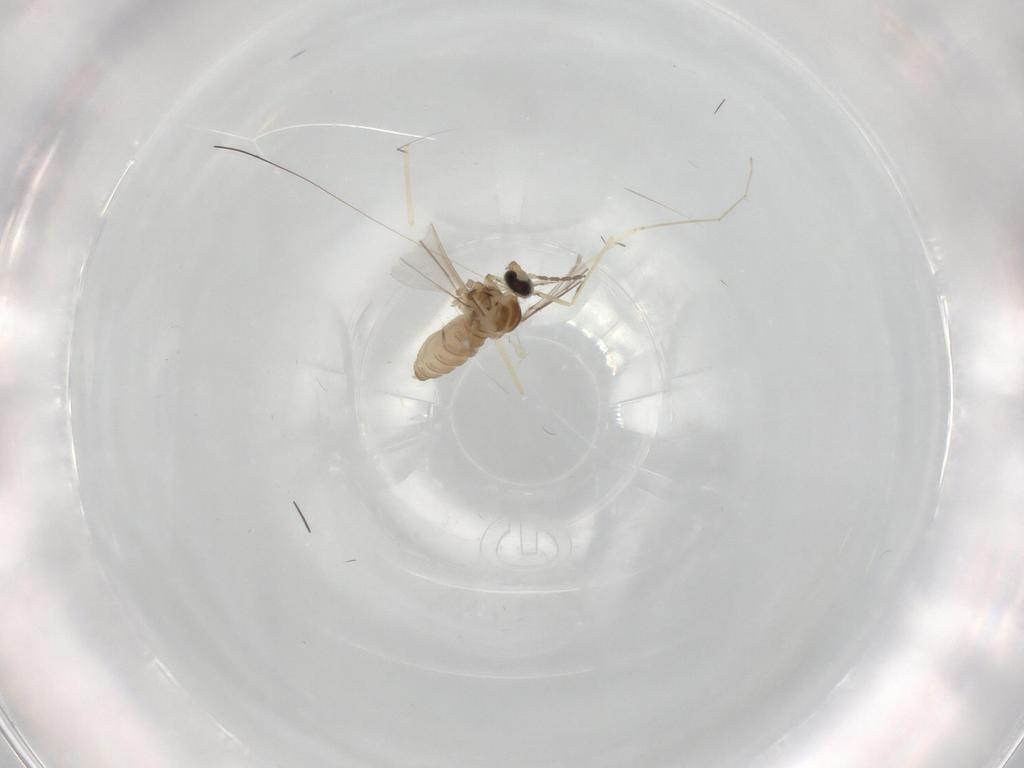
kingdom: Animalia
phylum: Arthropoda
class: Insecta
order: Diptera
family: Cecidomyiidae
